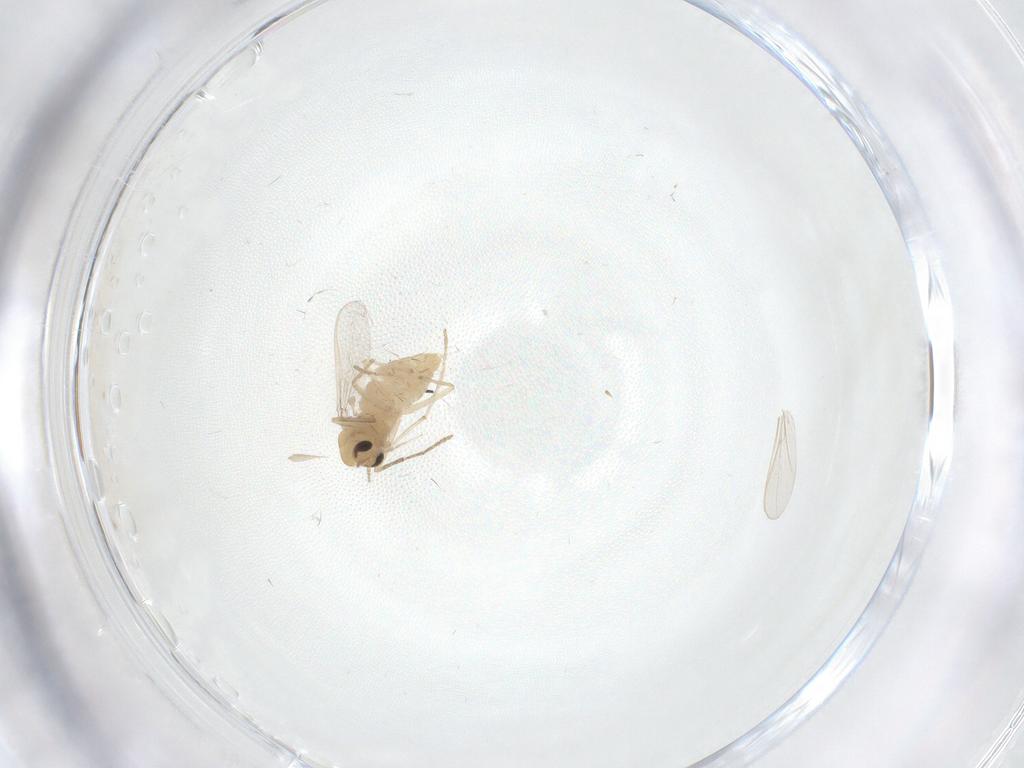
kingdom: Animalia
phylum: Arthropoda
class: Insecta
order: Diptera
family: Chironomidae
